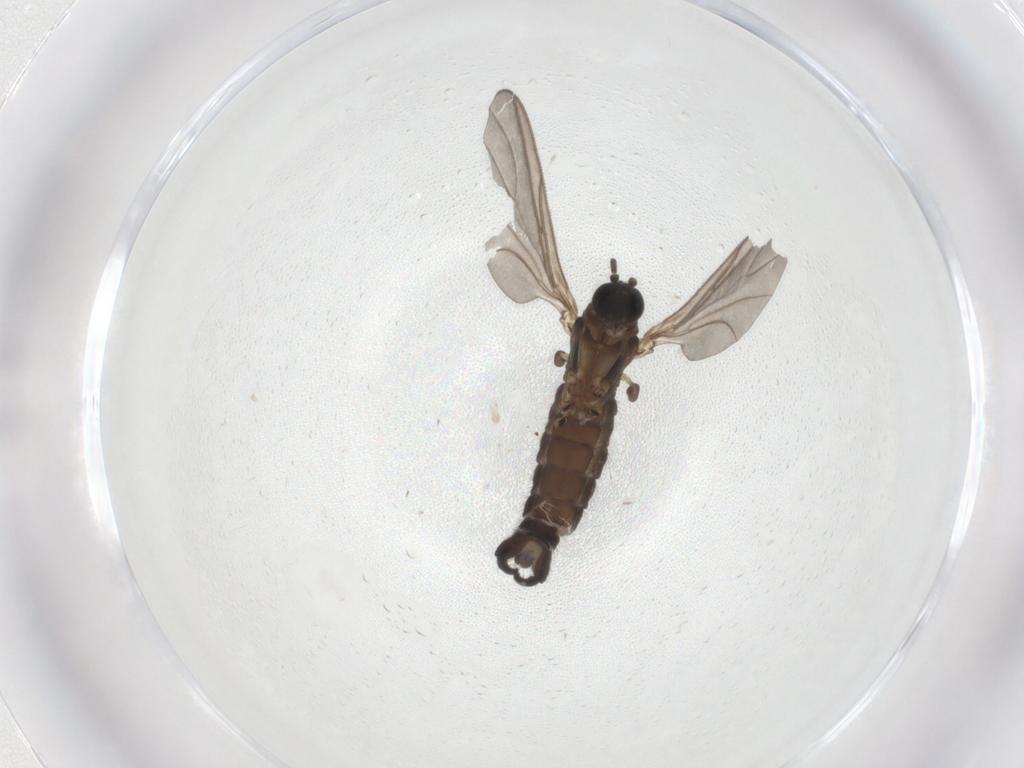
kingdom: Animalia
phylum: Arthropoda
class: Insecta
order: Diptera
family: Sciaridae
